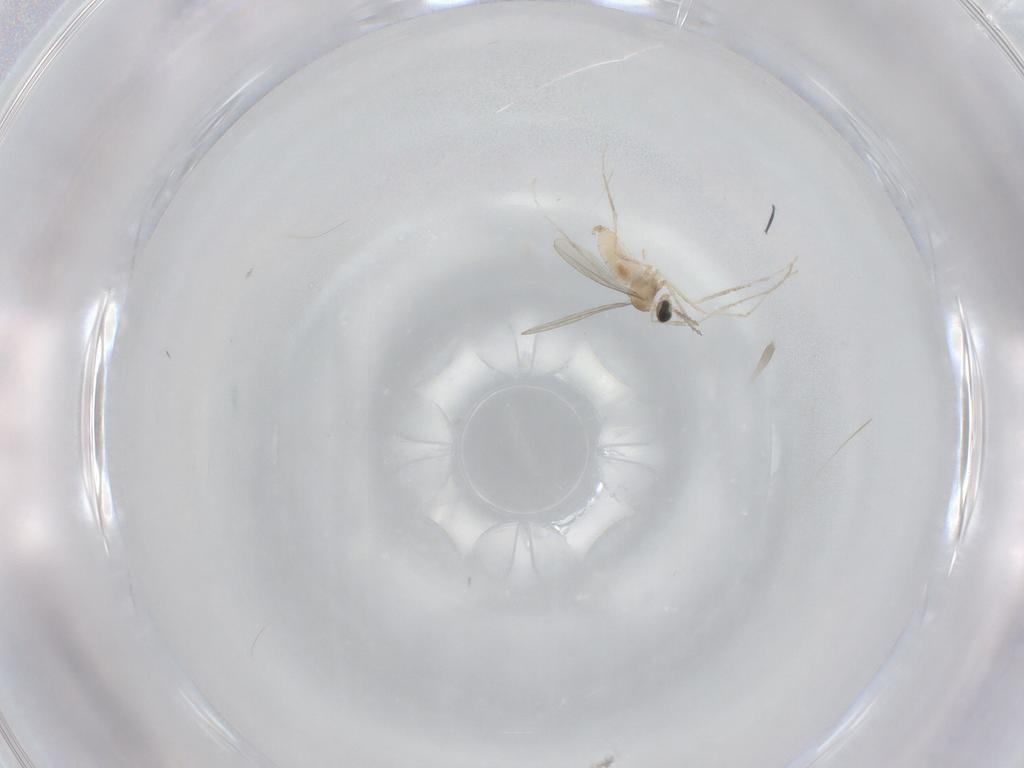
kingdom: Animalia
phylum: Arthropoda
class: Insecta
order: Diptera
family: Cecidomyiidae
